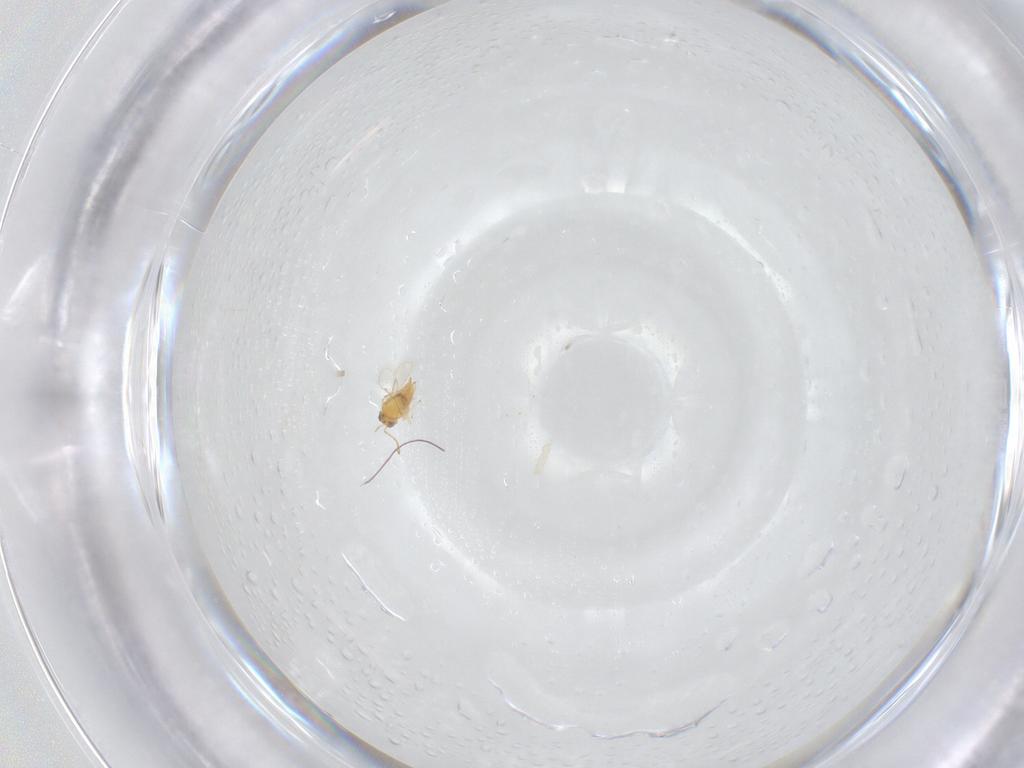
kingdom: Animalia
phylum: Arthropoda
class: Insecta
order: Hymenoptera
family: Aphelinidae
